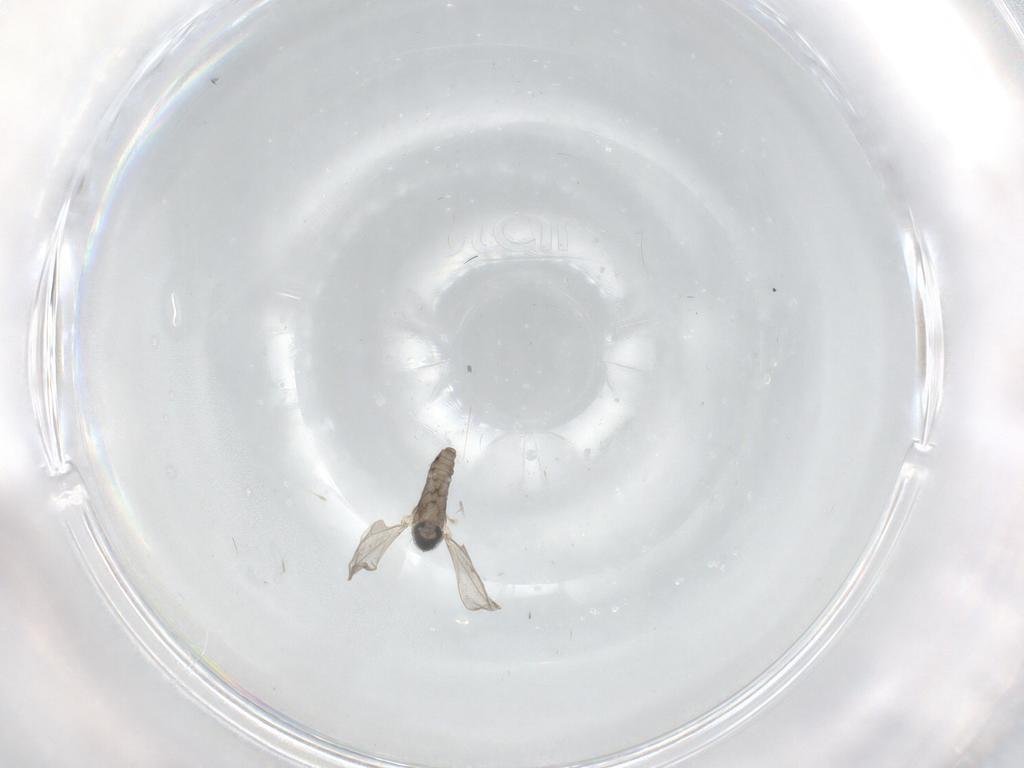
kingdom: Animalia
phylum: Arthropoda
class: Insecta
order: Diptera
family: Cecidomyiidae
